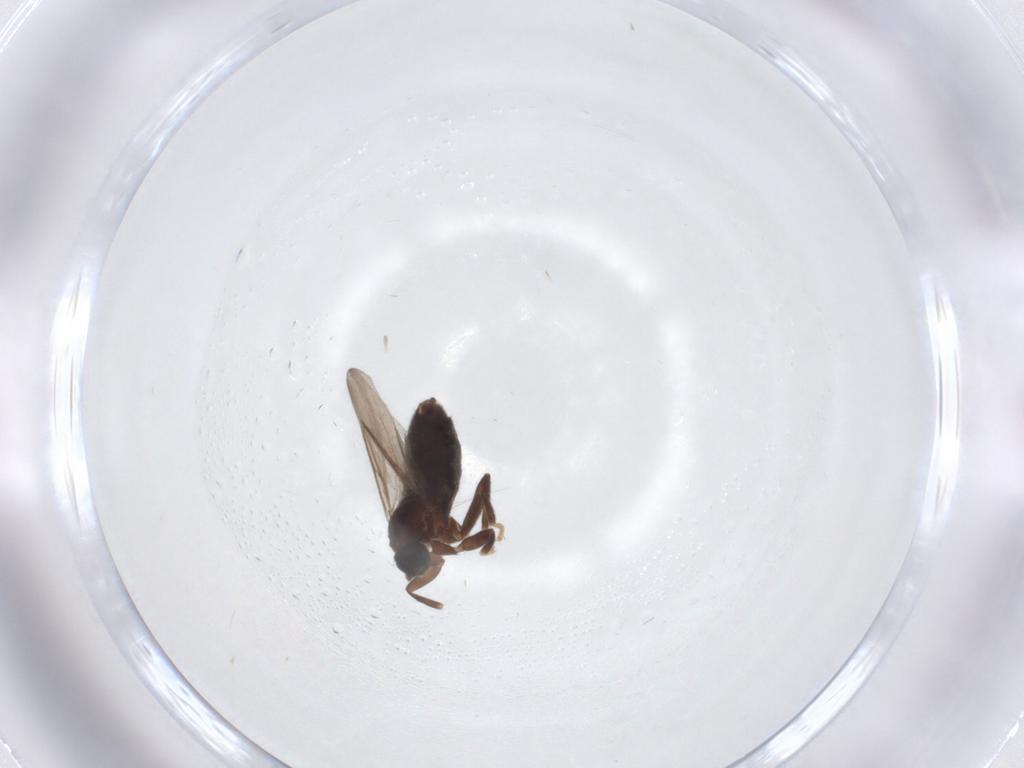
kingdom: Animalia
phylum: Arthropoda
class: Insecta
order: Diptera
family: Scatopsidae
